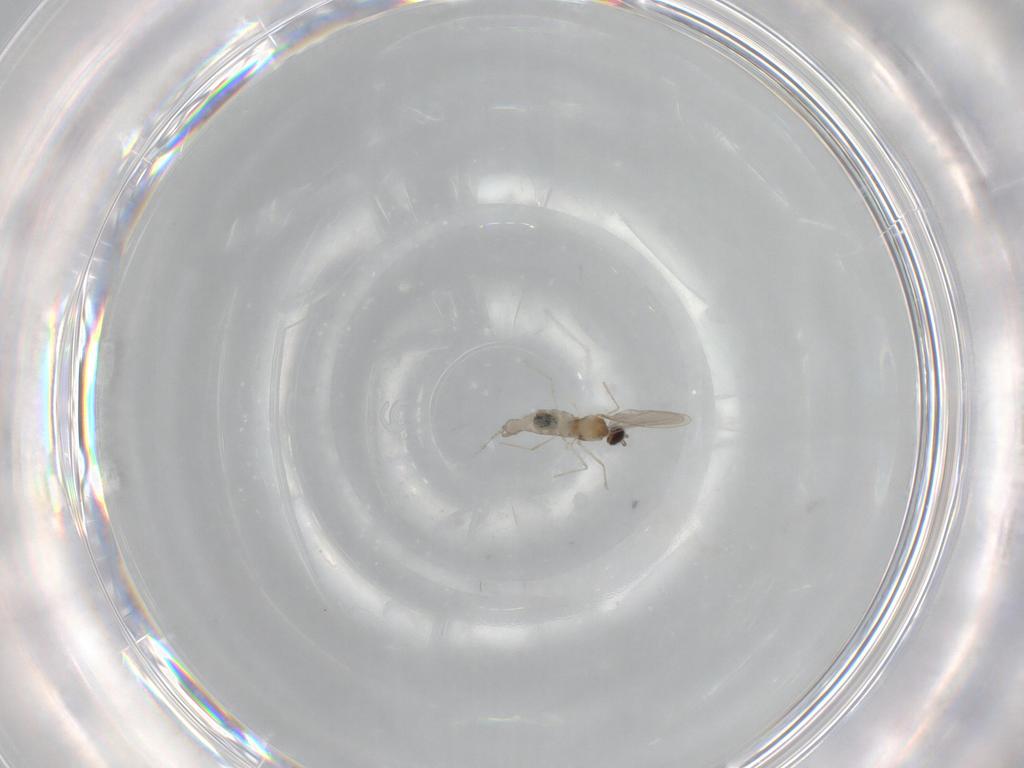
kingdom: Animalia
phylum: Arthropoda
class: Insecta
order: Diptera
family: Cecidomyiidae
